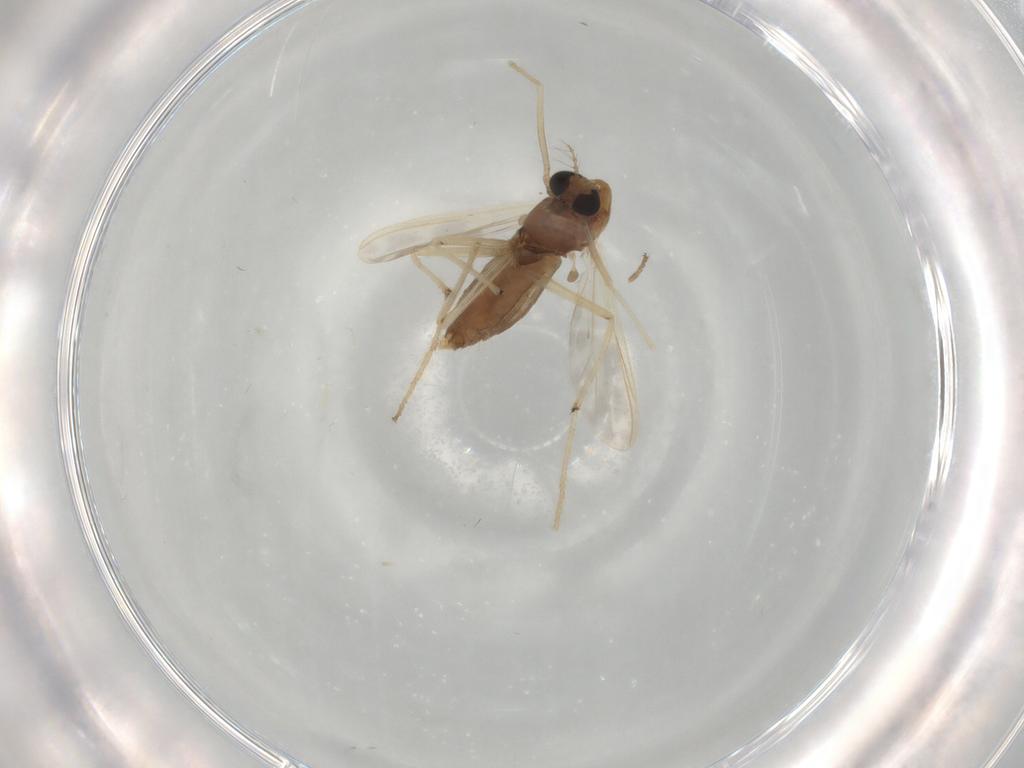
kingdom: Animalia
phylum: Arthropoda
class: Insecta
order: Diptera
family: Chironomidae
